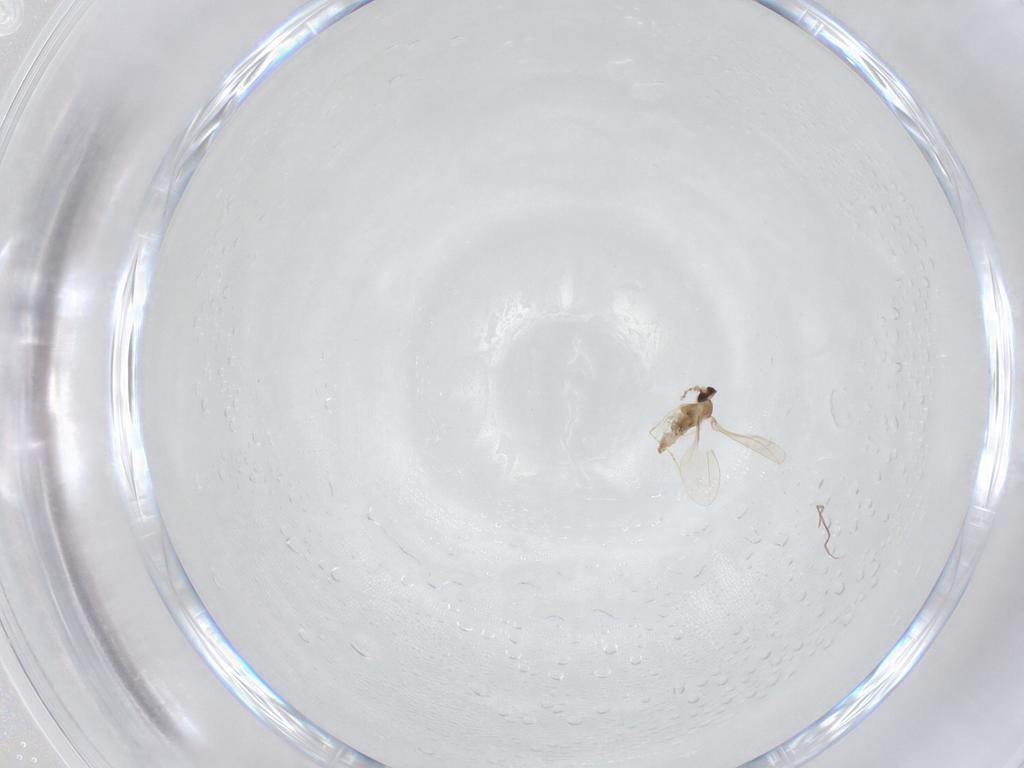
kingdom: Animalia
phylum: Arthropoda
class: Insecta
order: Diptera
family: Cecidomyiidae
